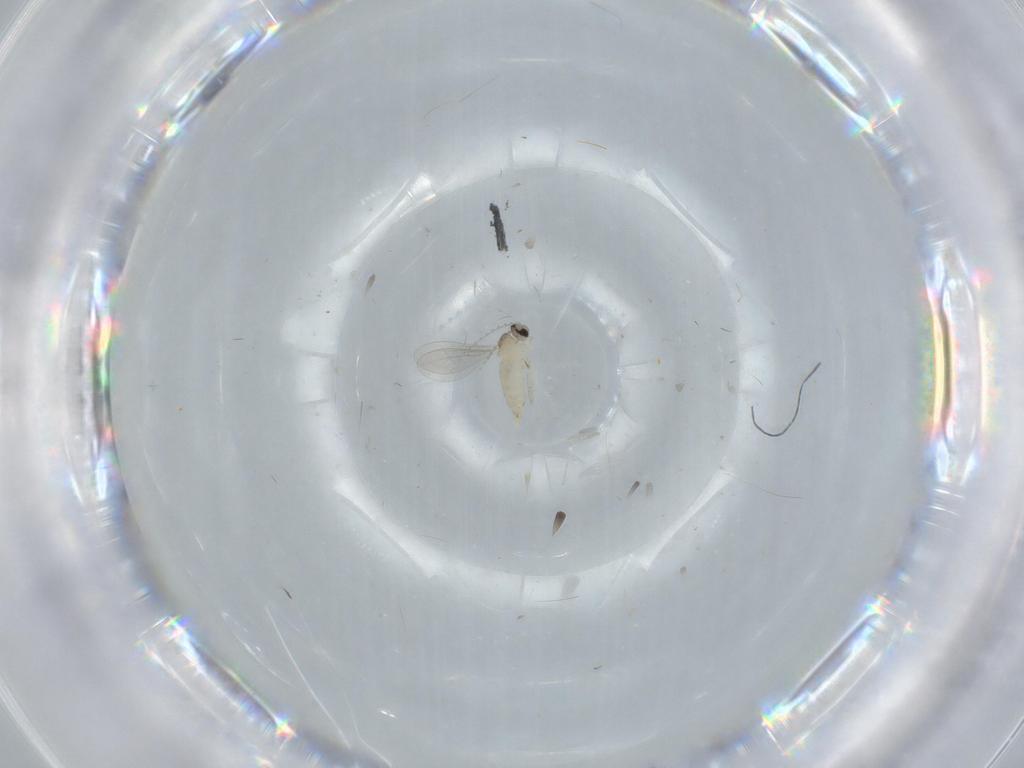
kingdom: Animalia
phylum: Arthropoda
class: Insecta
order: Diptera
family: Cecidomyiidae
